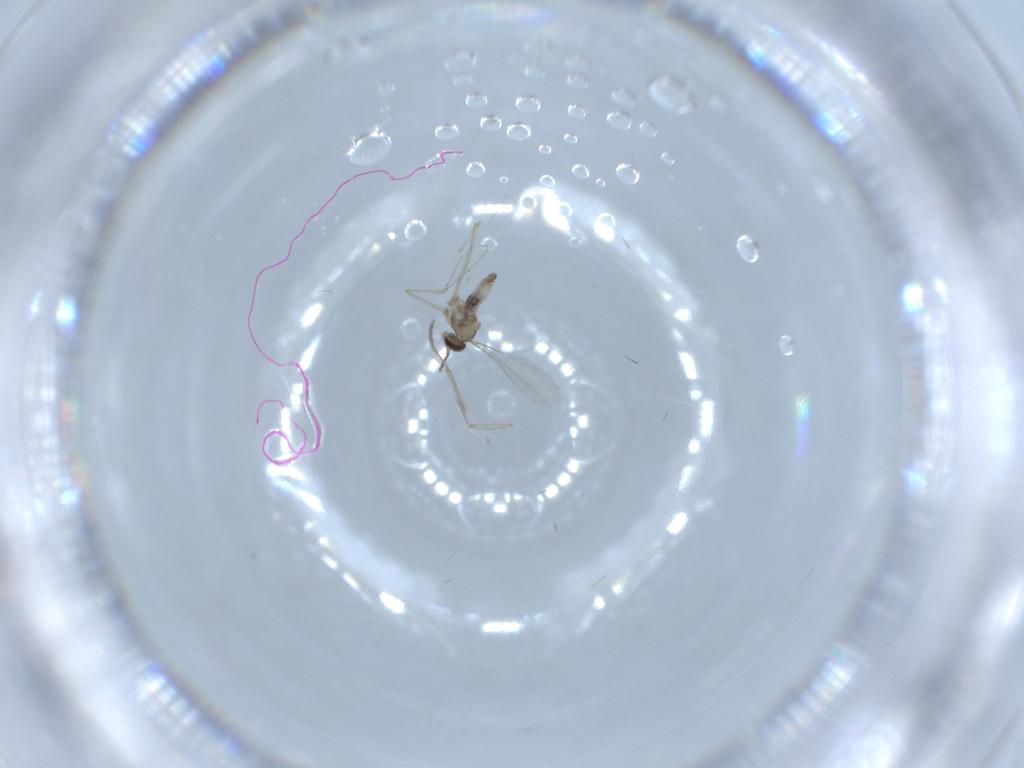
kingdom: Animalia
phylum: Arthropoda
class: Insecta
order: Diptera
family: Cecidomyiidae
